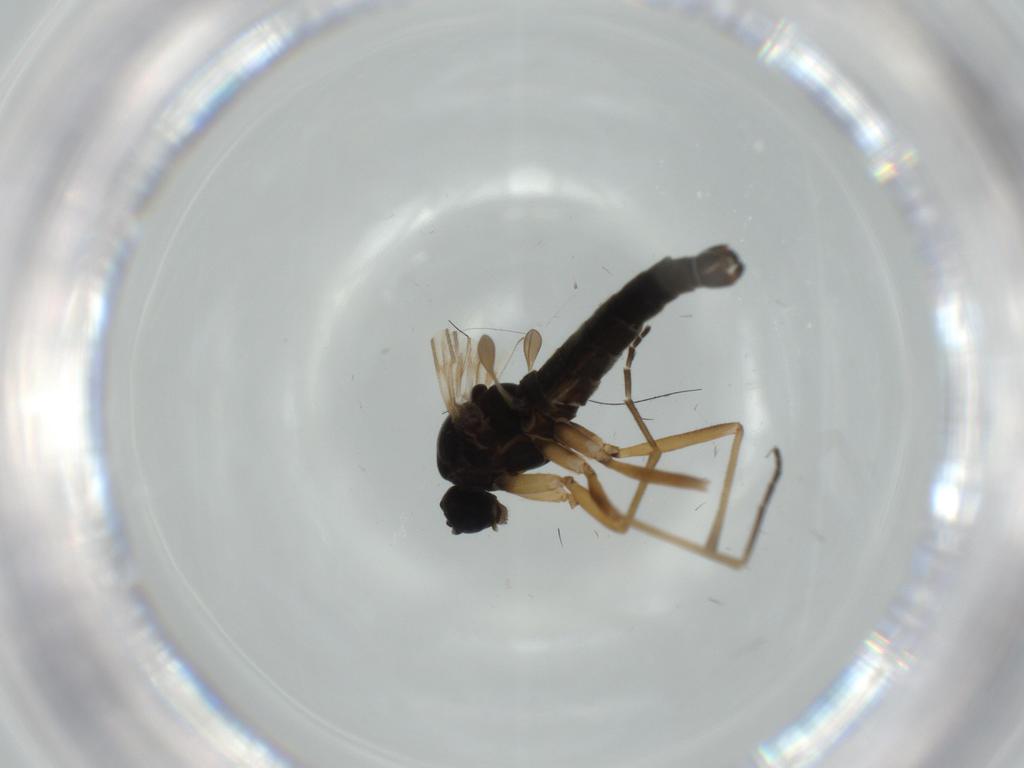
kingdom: Animalia
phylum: Arthropoda
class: Insecta
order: Diptera
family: Sciaridae
